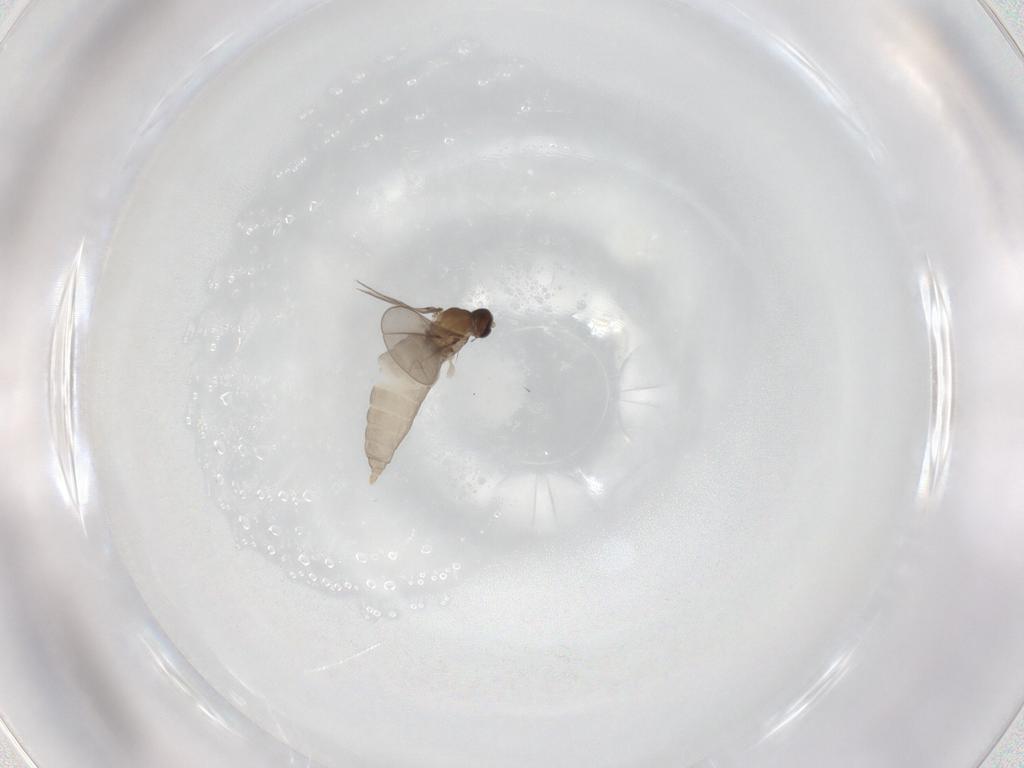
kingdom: Animalia
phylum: Arthropoda
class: Insecta
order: Diptera
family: Cecidomyiidae
